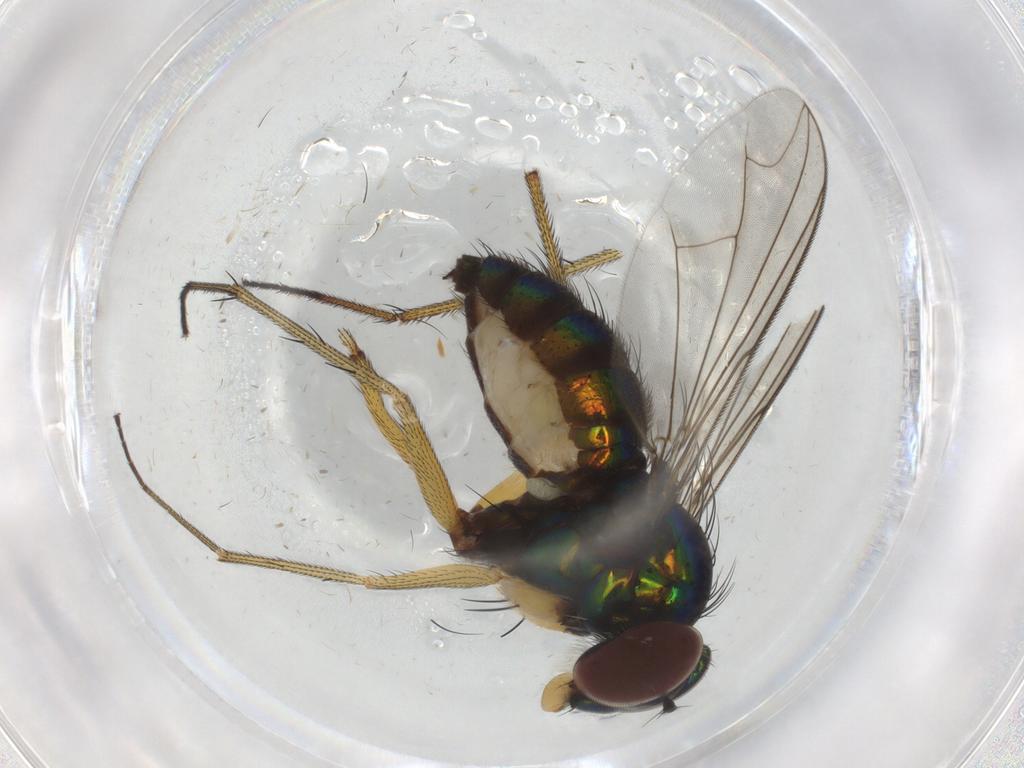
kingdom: Animalia
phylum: Arthropoda
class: Insecta
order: Diptera
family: Dolichopodidae
